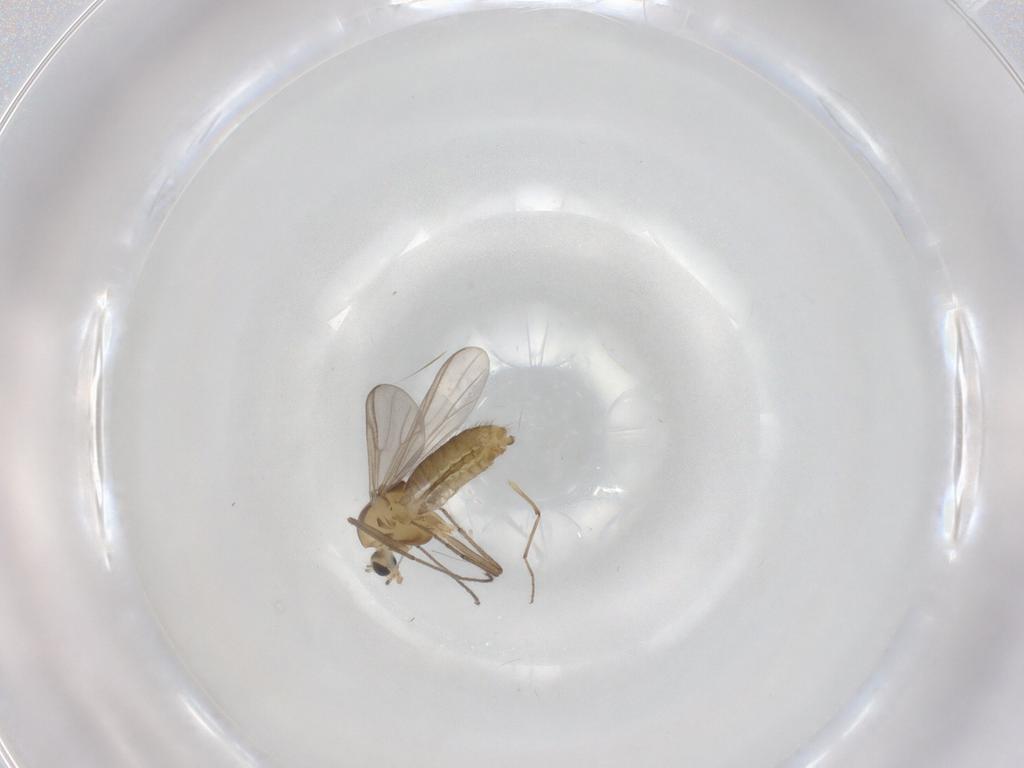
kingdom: Animalia
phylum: Arthropoda
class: Insecta
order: Diptera
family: Chironomidae
